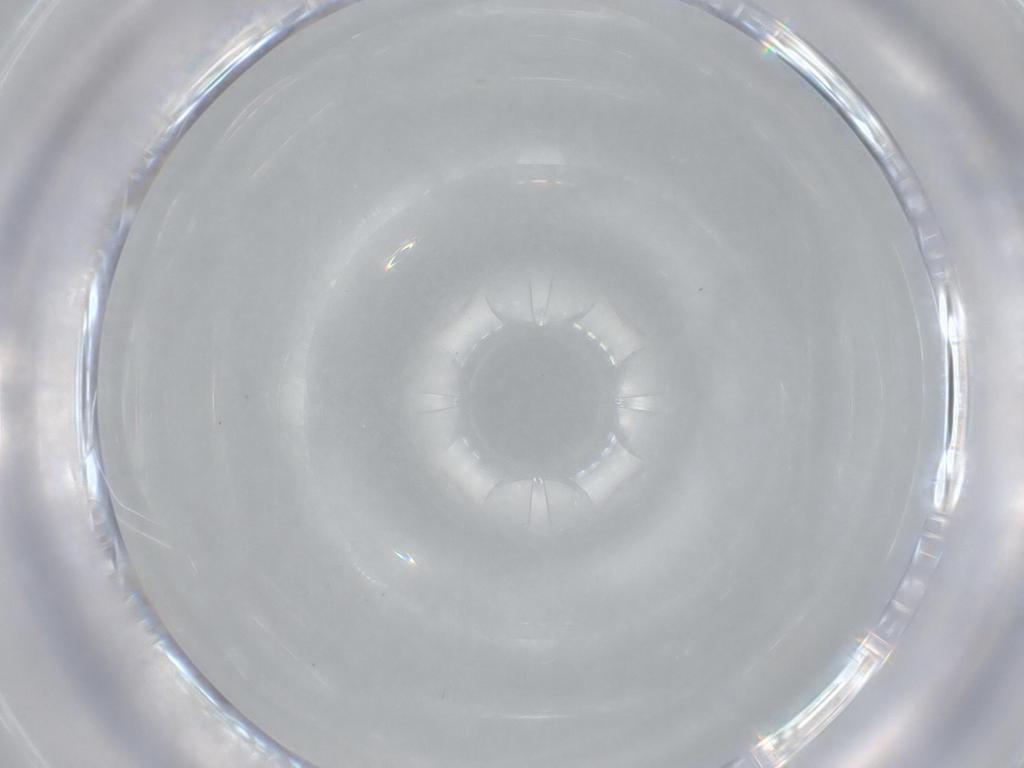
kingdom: Animalia
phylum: Arthropoda
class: Insecta
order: Diptera
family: Cecidomyiidae
